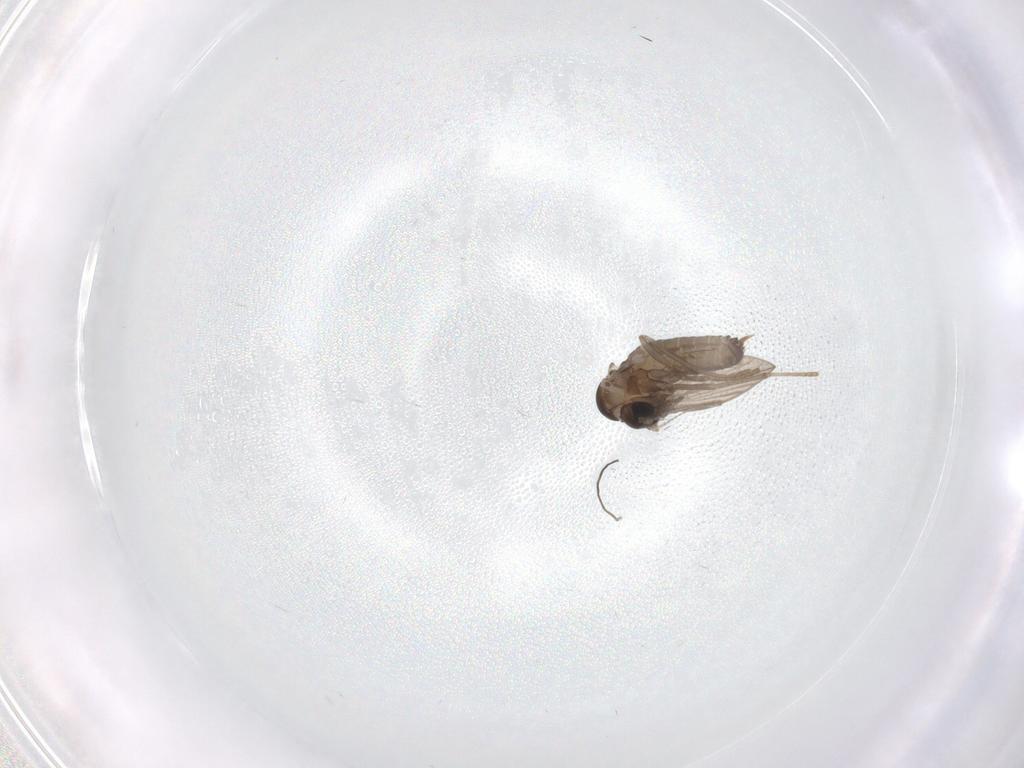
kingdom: Animalia
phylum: Arthropoda
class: Insecta
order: Diptera
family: Psychodidae
